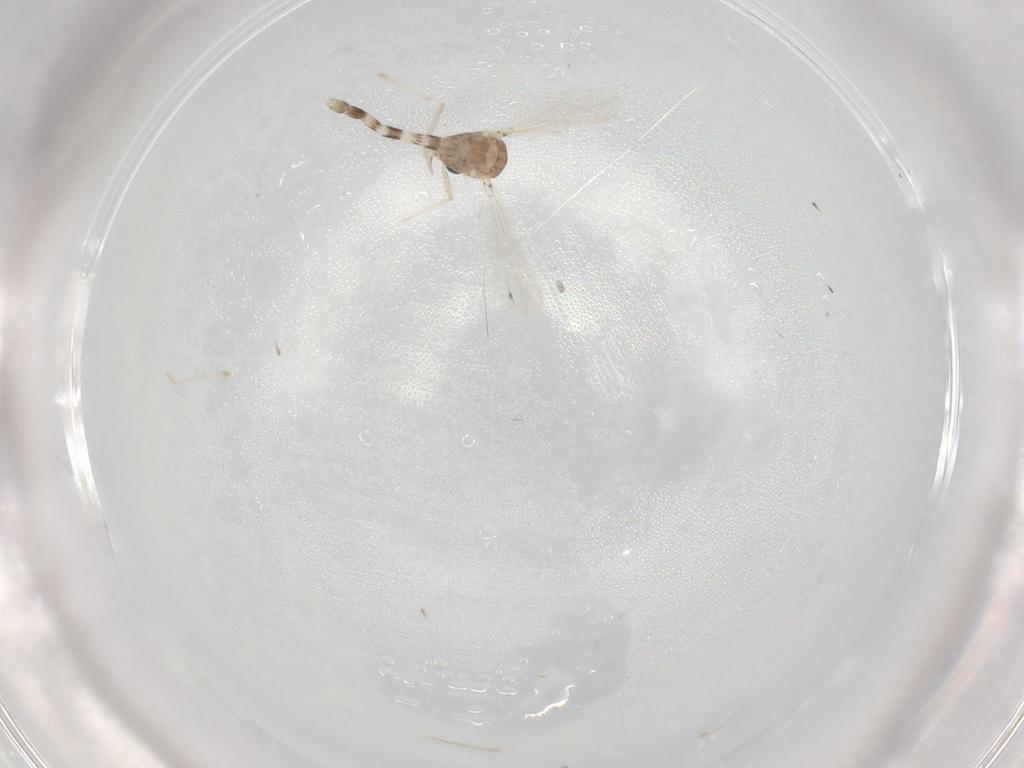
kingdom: Animalia
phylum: Arthropoda
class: Insecta
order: Diptera
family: Chironomidae
